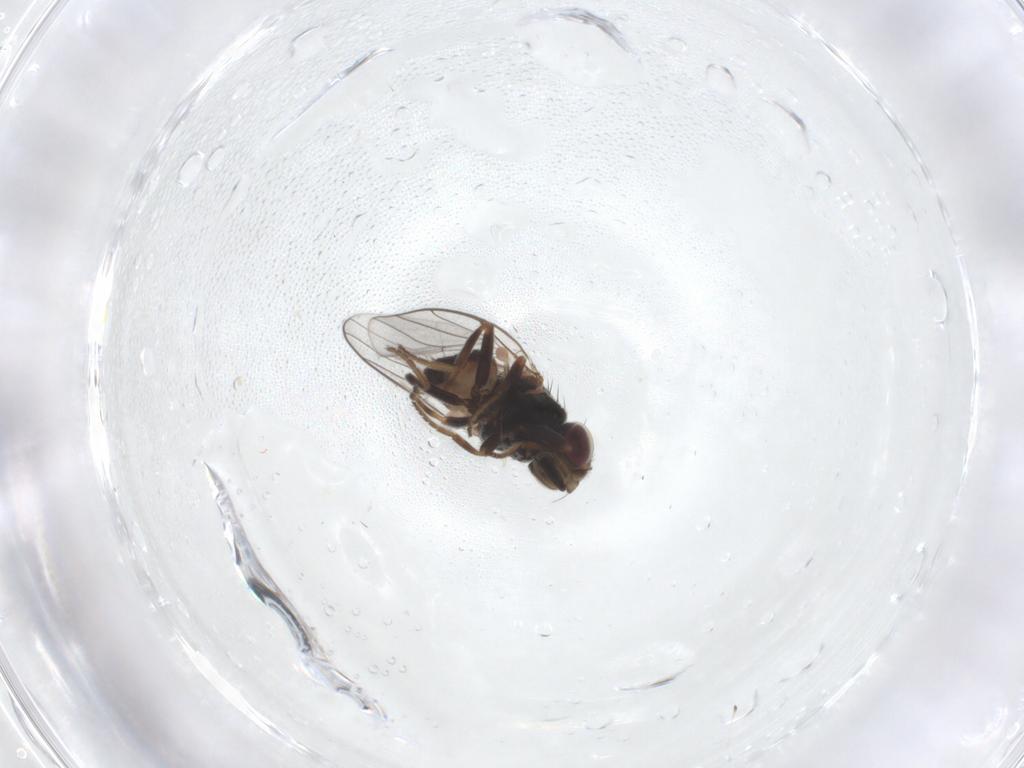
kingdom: Animalia
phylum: Arthropoda
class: Insecta
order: Diptera
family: Chloropidae
